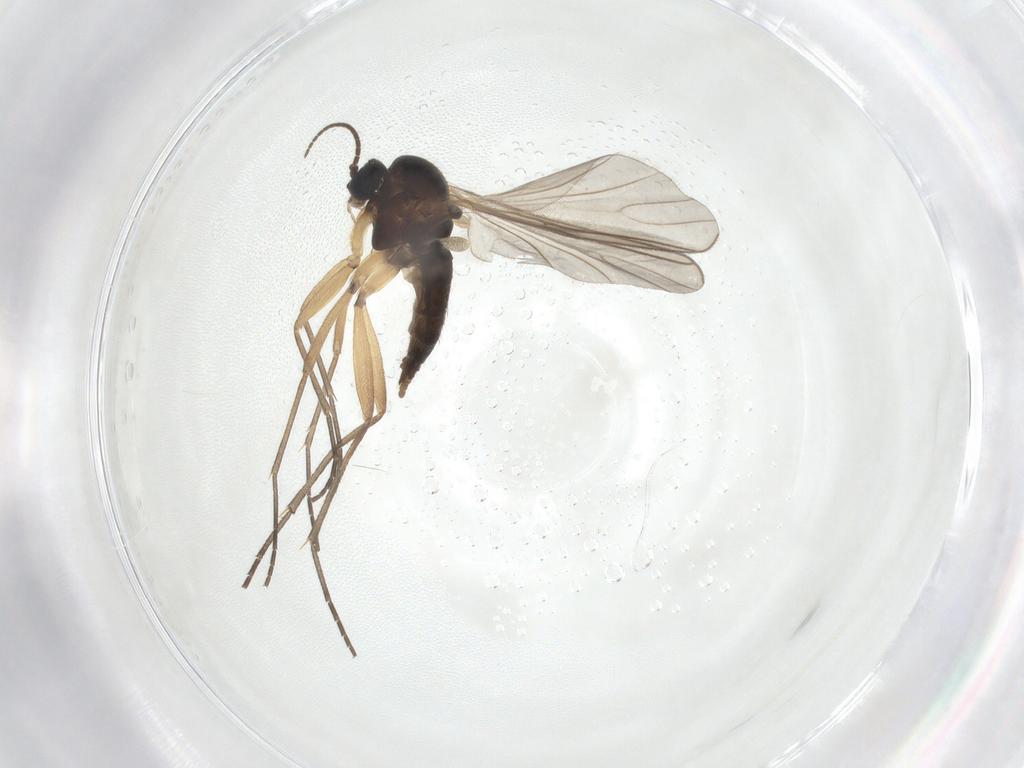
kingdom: Animalia
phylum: Arthropoda
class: Insecta
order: Diptera
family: Sciaridae
